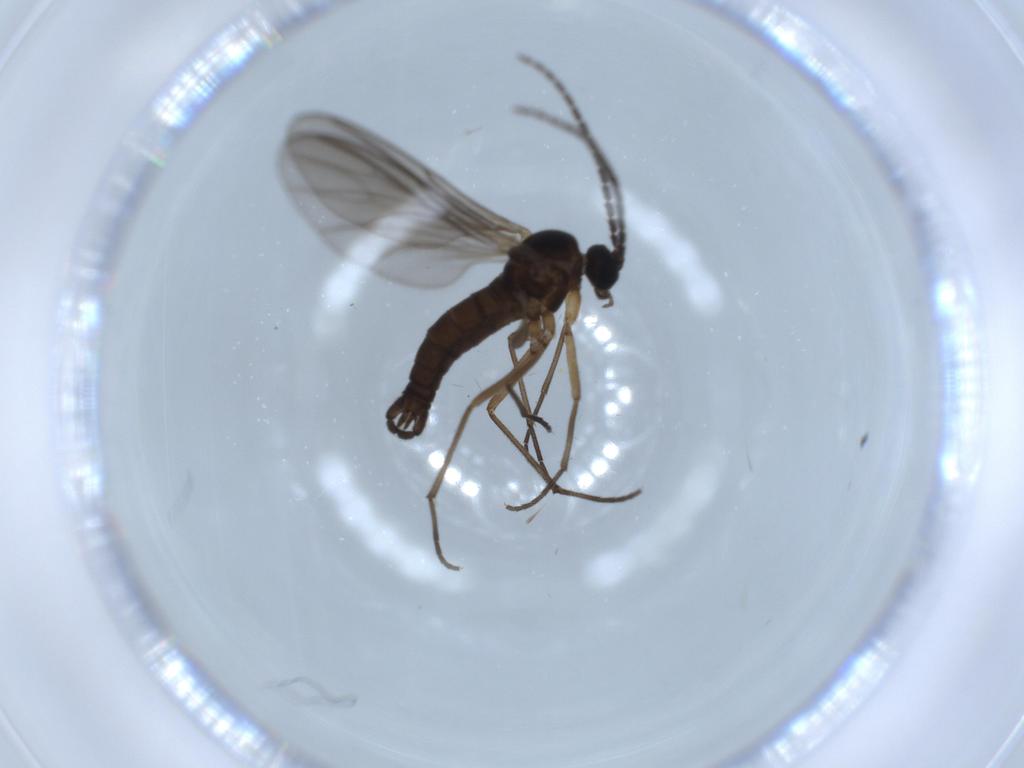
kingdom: Animalia
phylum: Arthropoda
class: Insecta
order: Diptera
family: Sciaridae
